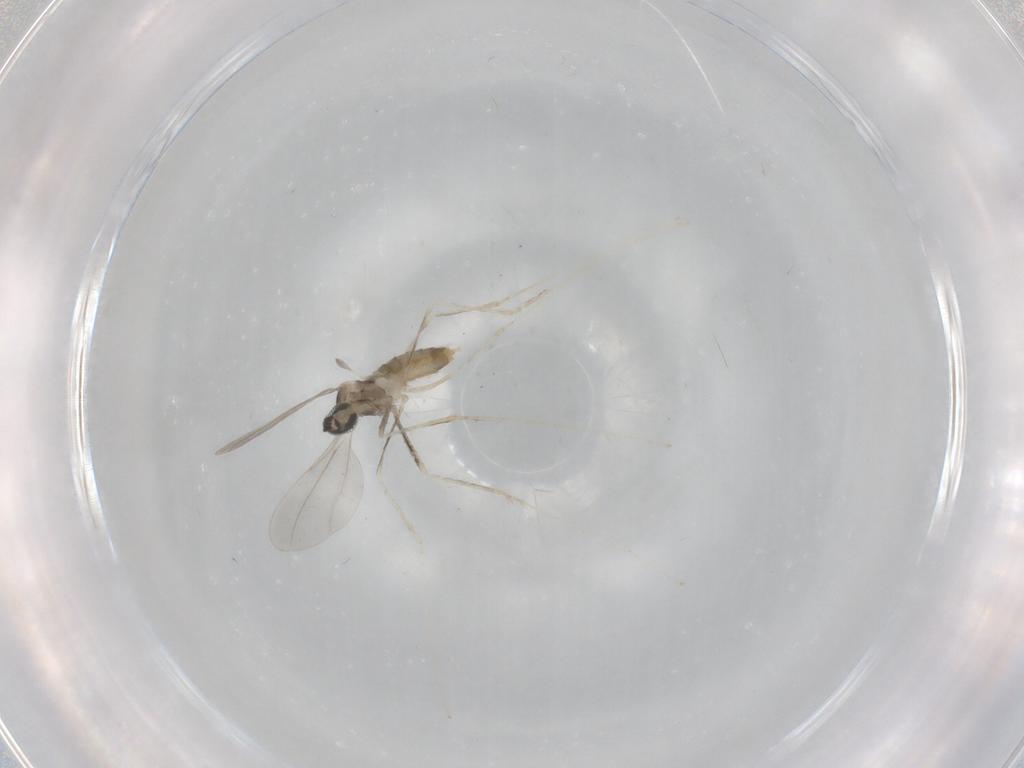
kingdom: Animalia
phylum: Arthropoda
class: Insecta
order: Diptera
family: Cecidomyiidae
